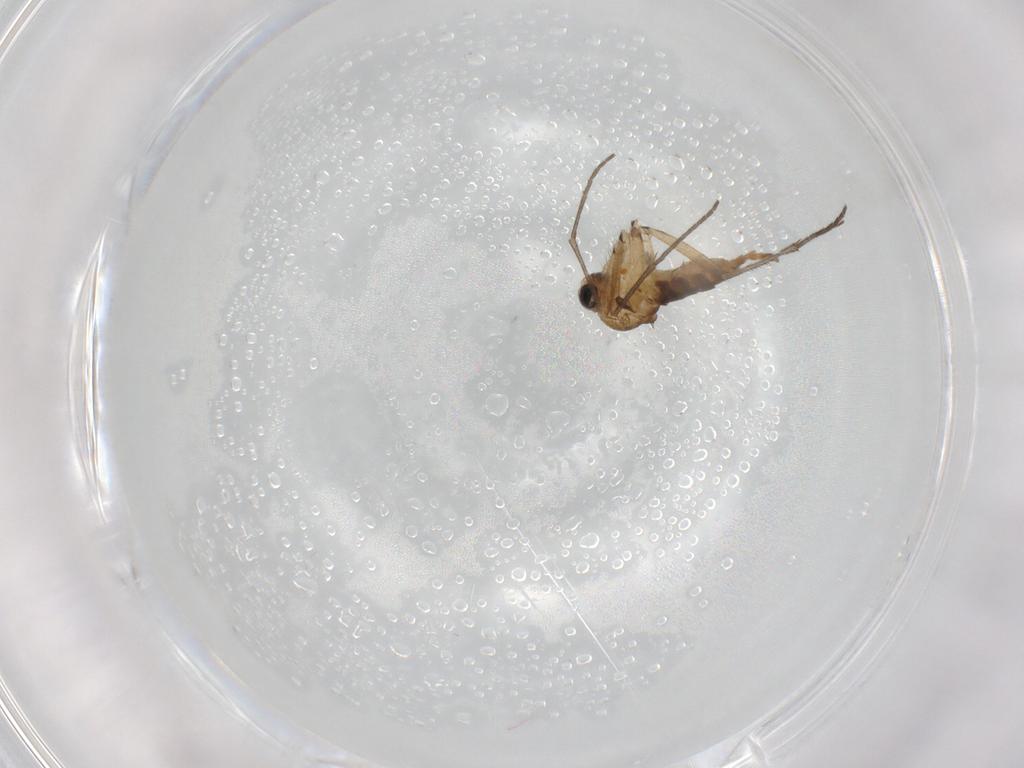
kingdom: Animalia
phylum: Arthropoda
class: Insecta
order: Diptera
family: Sciaridae
